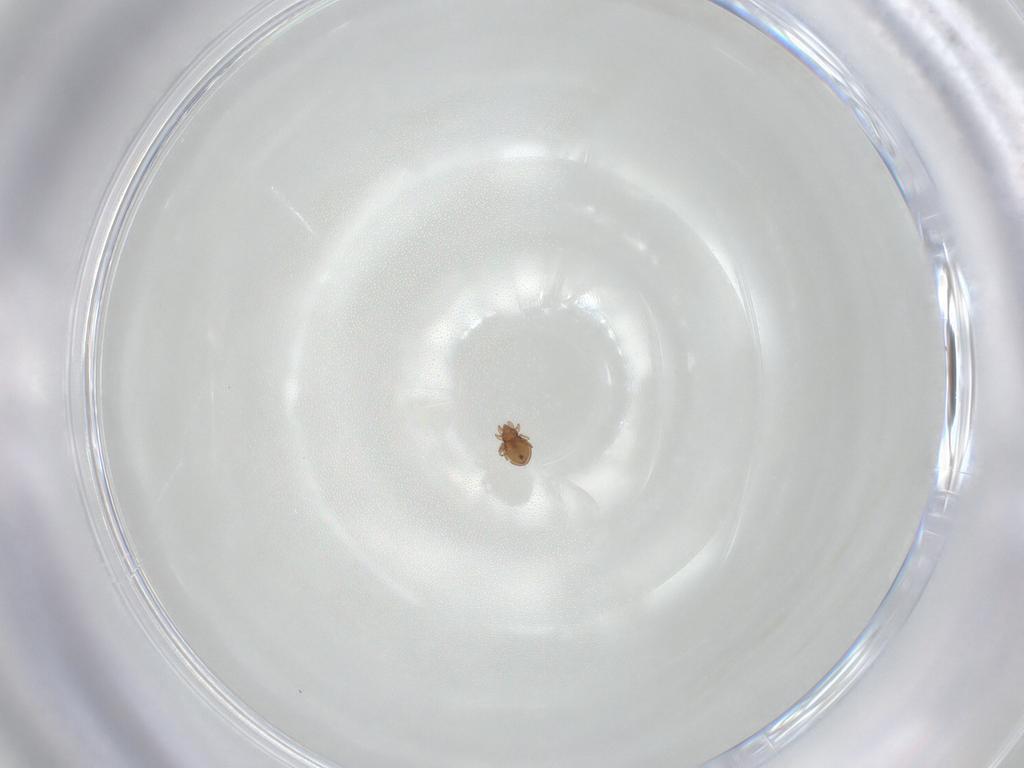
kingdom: Animalia
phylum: Arthropoda
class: Arachnida
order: Sarcoptiformes
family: Oribatulidae
